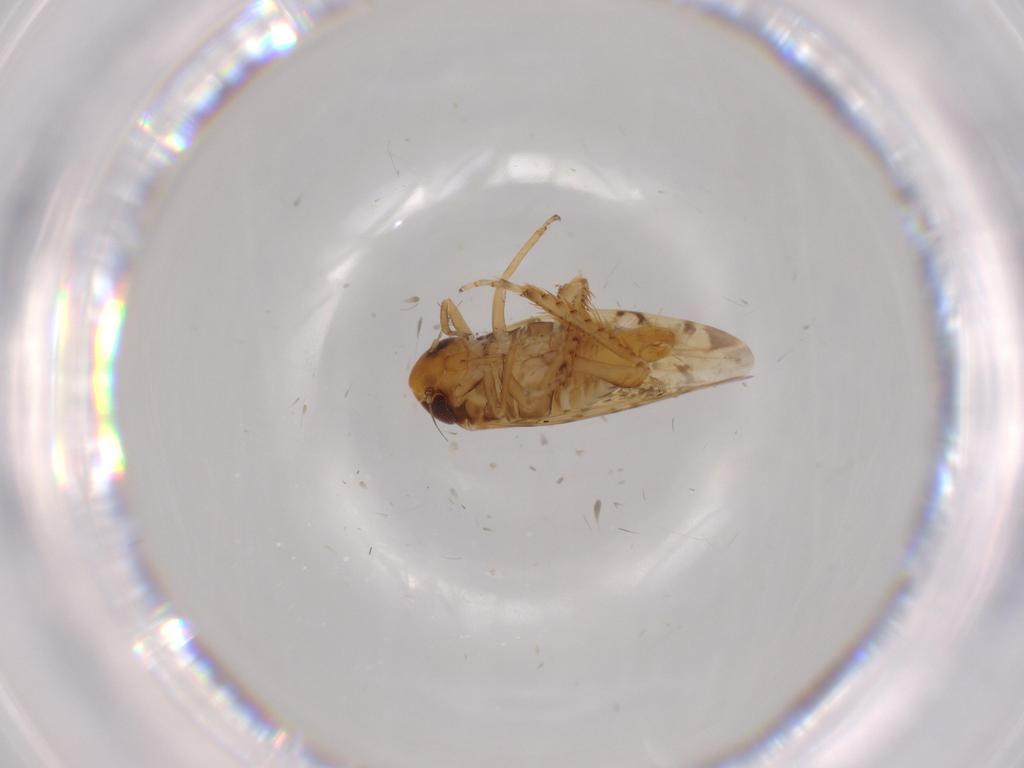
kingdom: Animalia
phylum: Arthropoda
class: Insecta
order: Hemiptera
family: Cicadellidae
